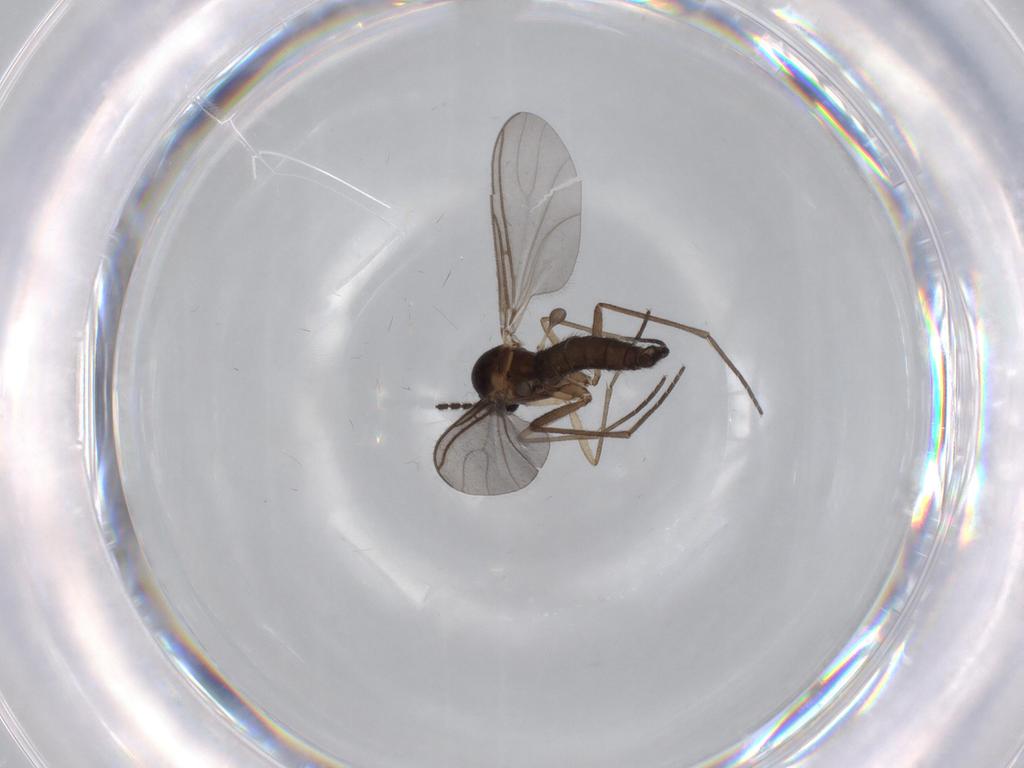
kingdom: Animalia
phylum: Arthropoda
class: Insecta
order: Diptera
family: Sciaridae
